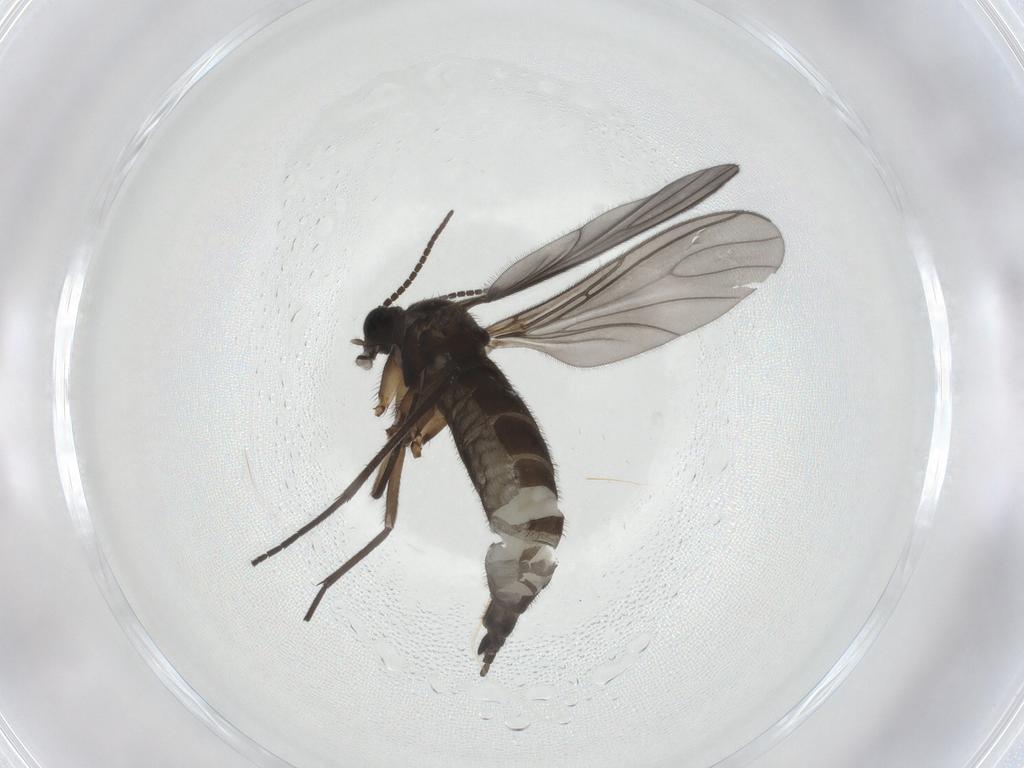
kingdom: Animalia
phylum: Arthropoda
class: Insecta
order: Diptera
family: Sciaridae
